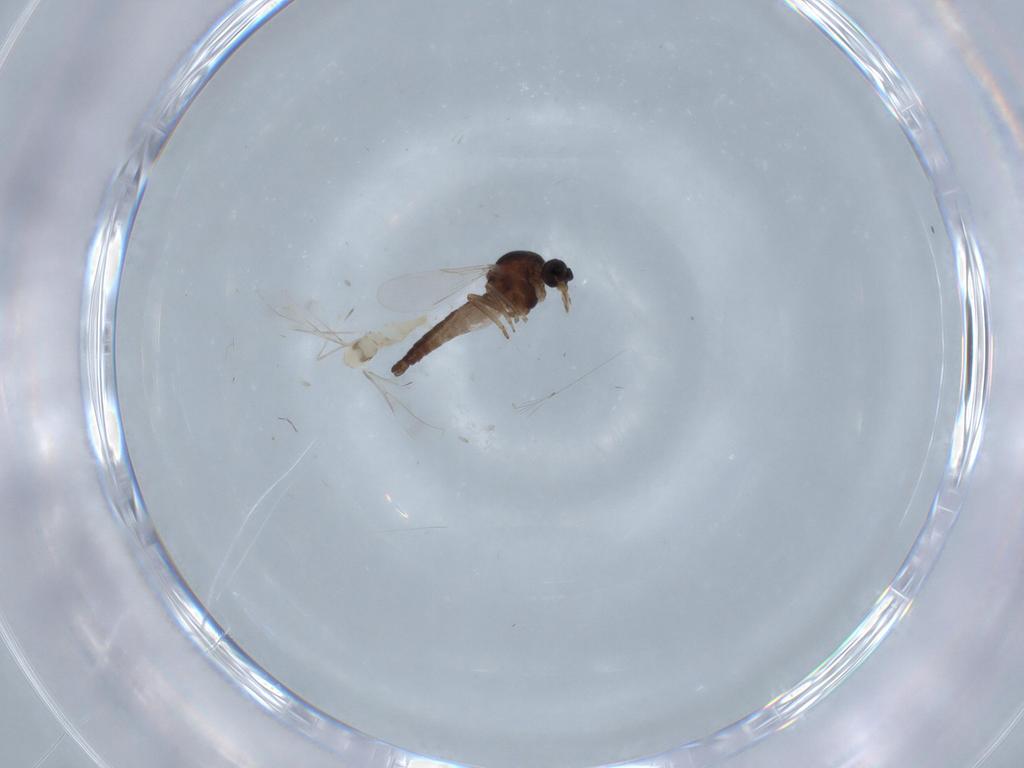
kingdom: Animalia
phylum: Arthropoda
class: Insecta
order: Diptera
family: Ceratopogonidae
